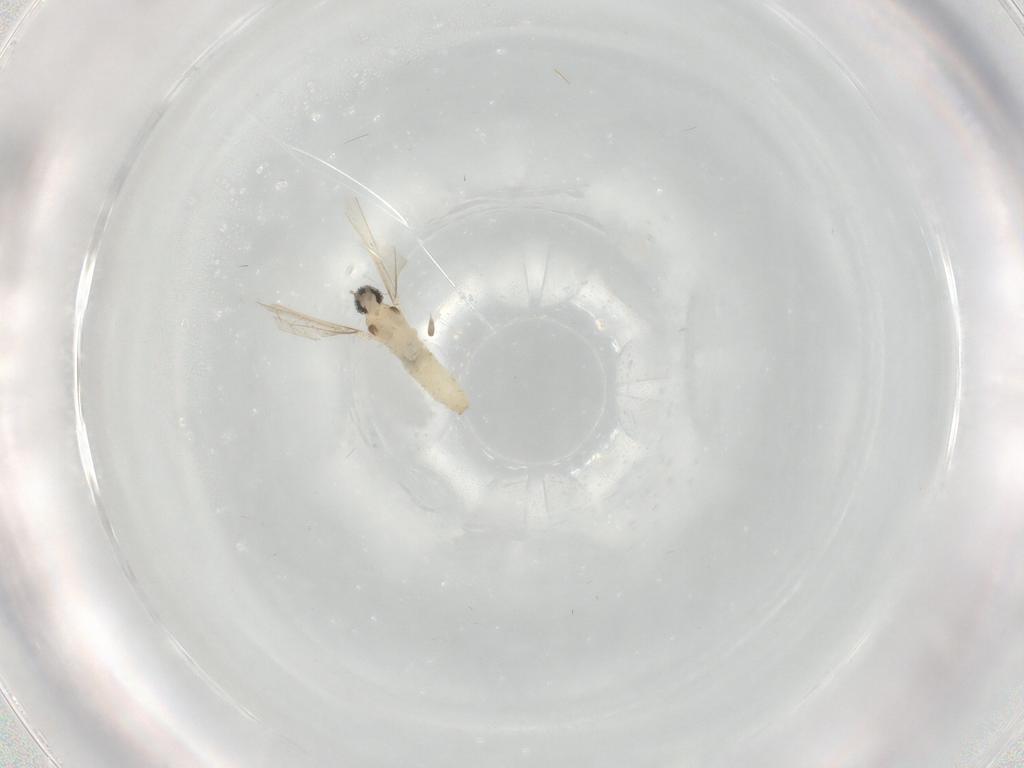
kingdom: Animalia
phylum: Arthropoda
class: Insecta
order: Diptera
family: Cecidomyiidae
